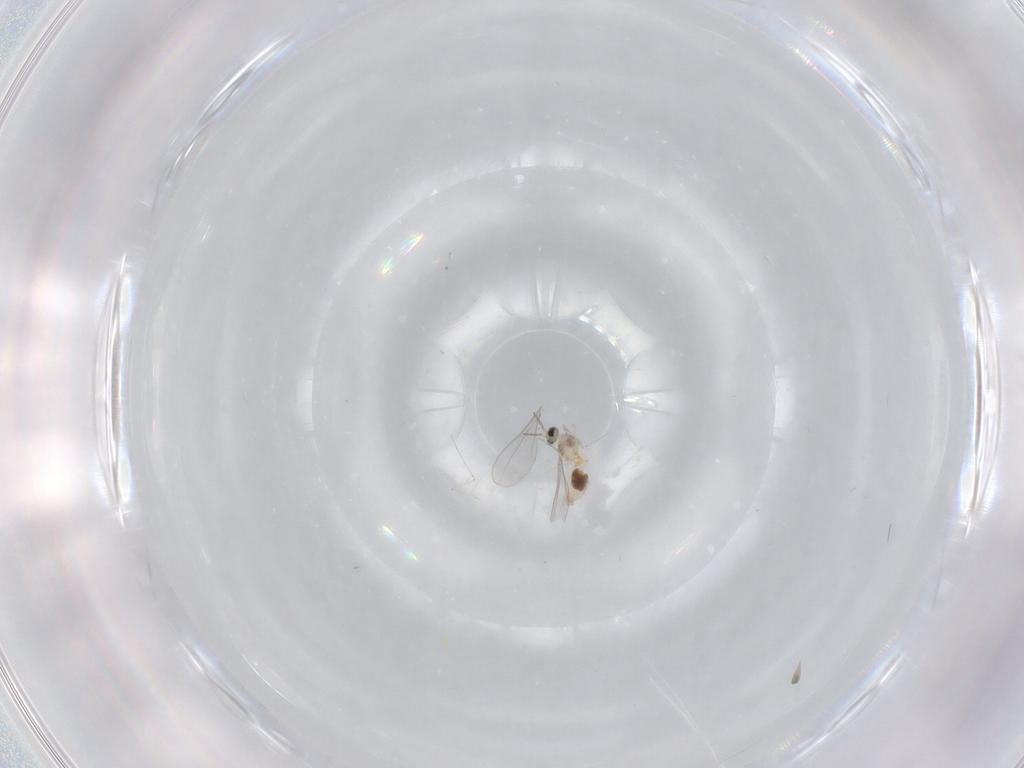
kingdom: Animalia
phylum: Arthropoda
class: Insecta
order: Diptera
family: Cecidomyiidae
